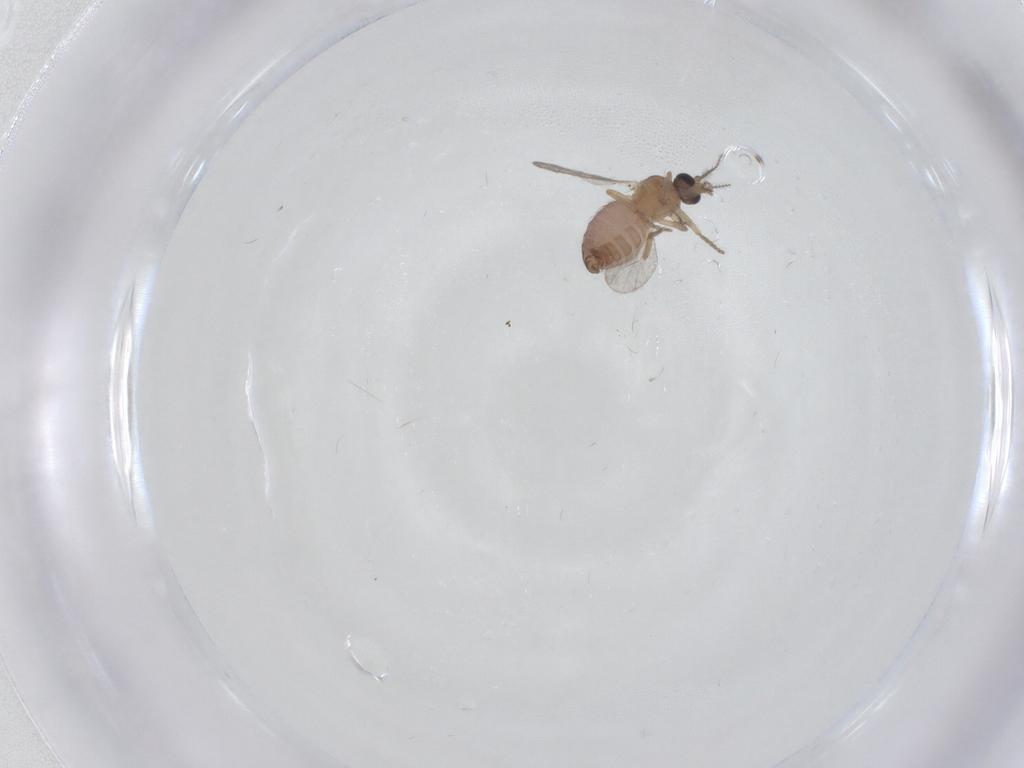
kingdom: Animalia
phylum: Arthropoda
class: Insecta
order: Diptera
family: Ceratopogonidae
